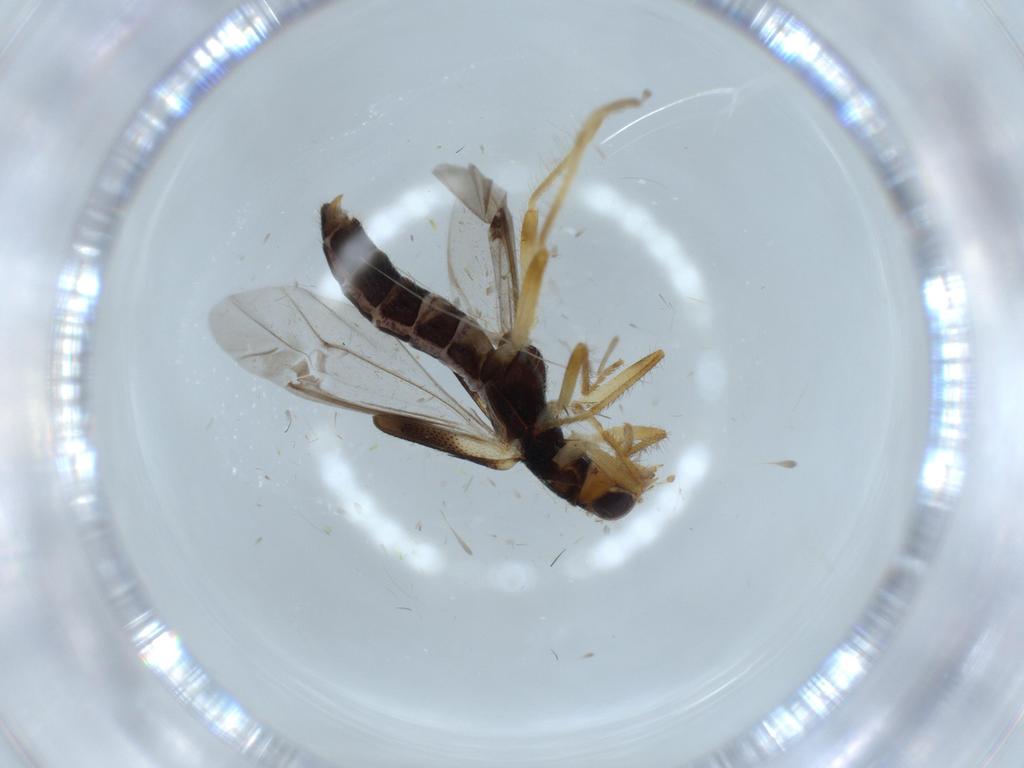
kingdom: Animalia
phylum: Arthropoda
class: Insecta
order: Coleoptera
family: Cleridae
